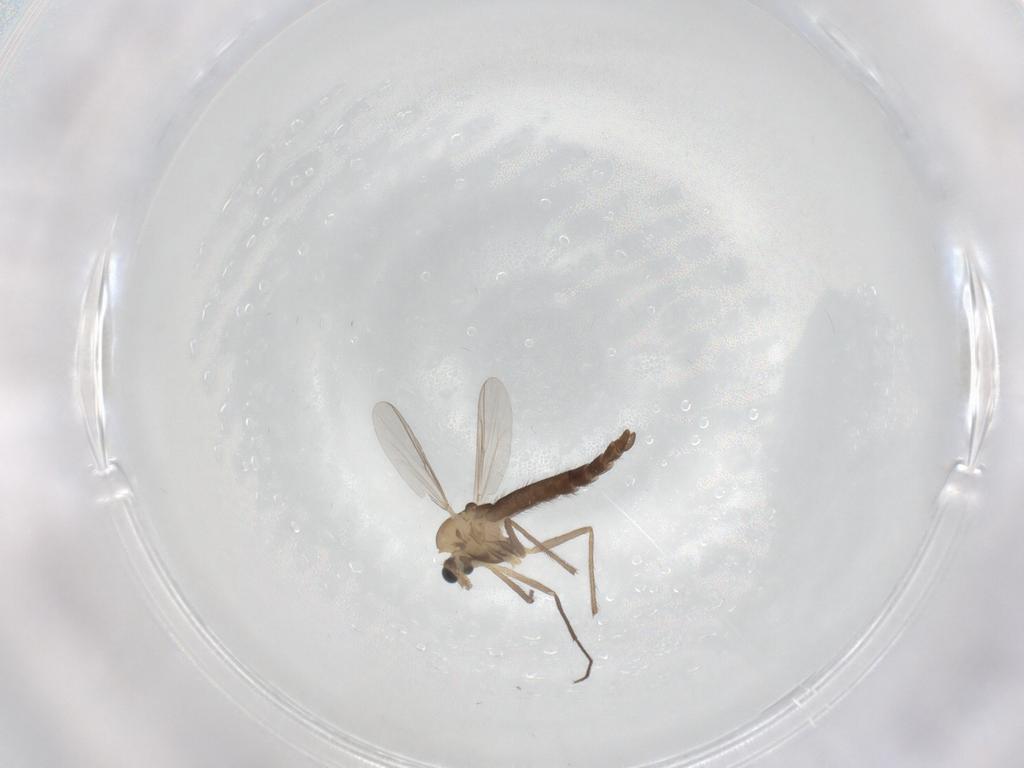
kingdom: Animalia
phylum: Arthropoda
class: Insecta
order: Diptera
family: Chironomidae
